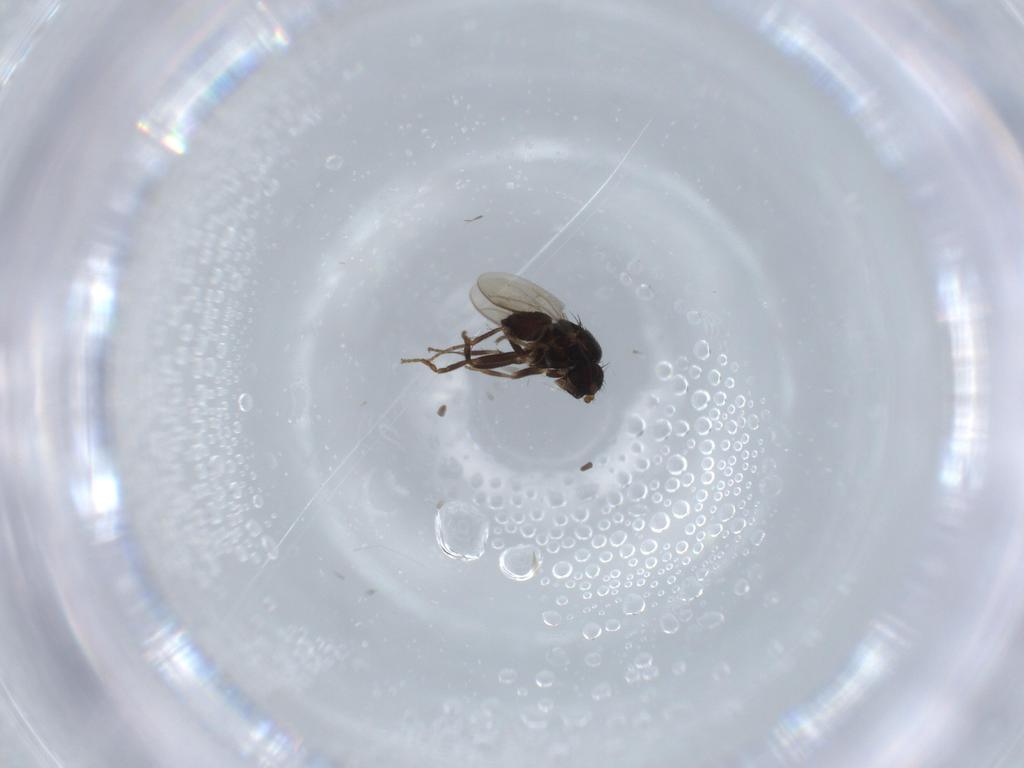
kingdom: Animalia
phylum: Arthropoda
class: Insecta
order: Diptera
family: Sphaeroceridae
